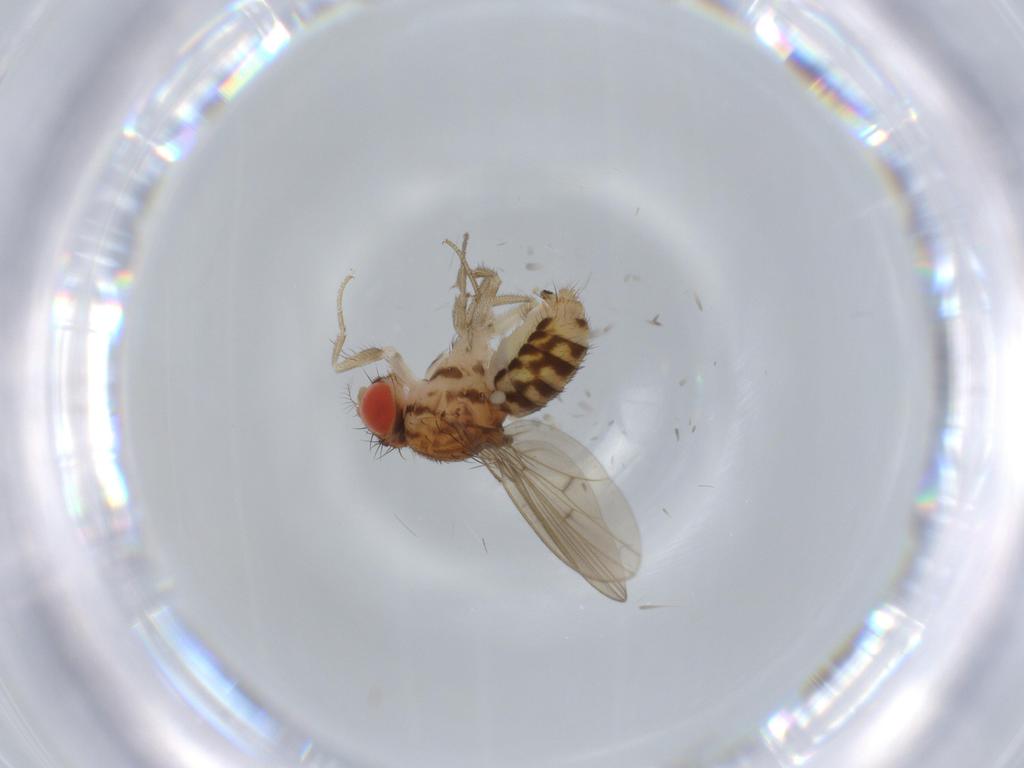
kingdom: Animalia
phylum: Arthropoda
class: Insecta
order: Diptera
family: Drosophilidae
